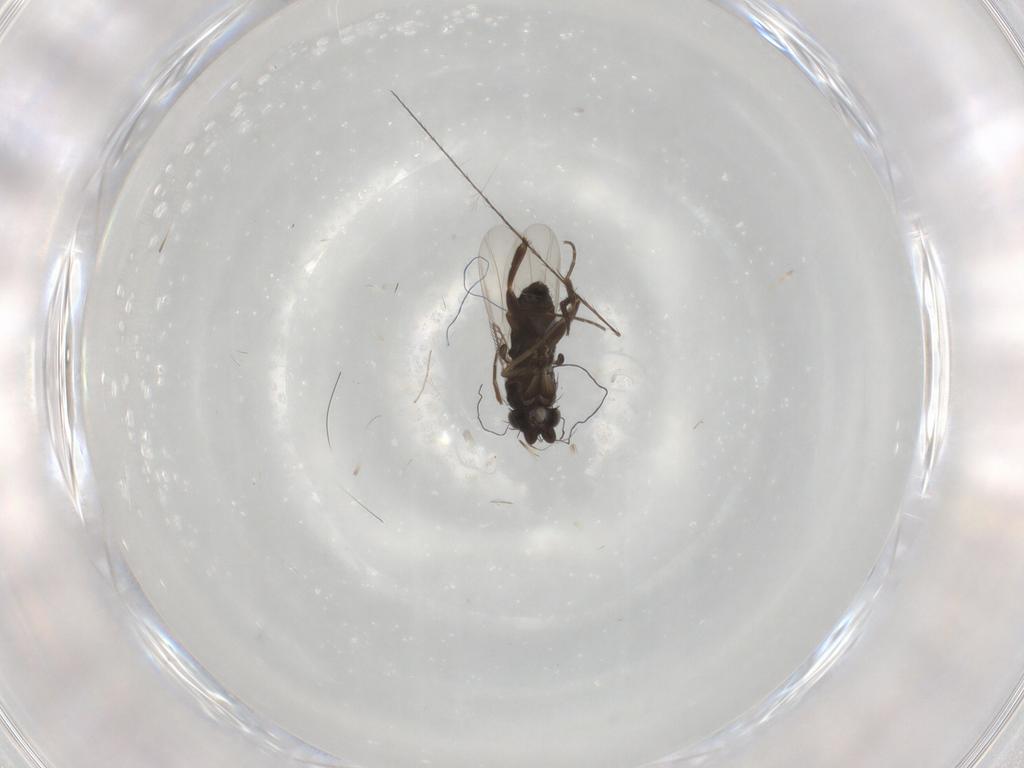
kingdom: Animalia
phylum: Arthropoda
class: Insecta
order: Diptera
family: Phoridae
